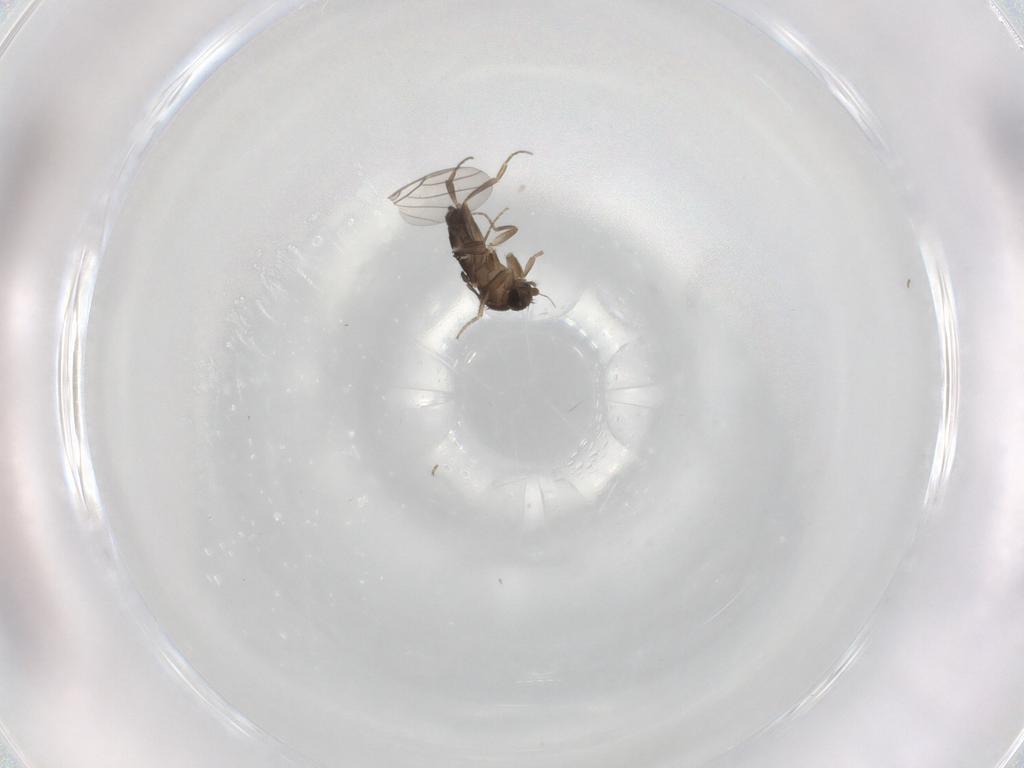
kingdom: Animalia
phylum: Arthropoda
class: Insecta
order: Diptera
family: Phoridae
